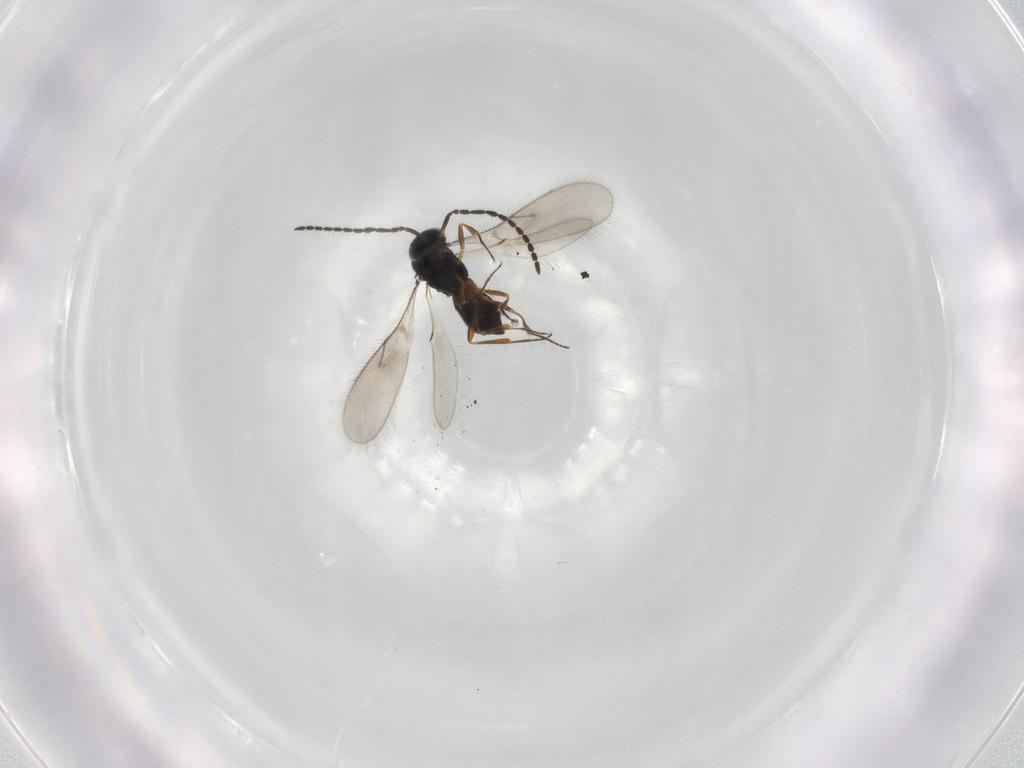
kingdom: Animalia
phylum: Arthropoda
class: Insecta
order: Hymenoptera
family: Scelionidae
